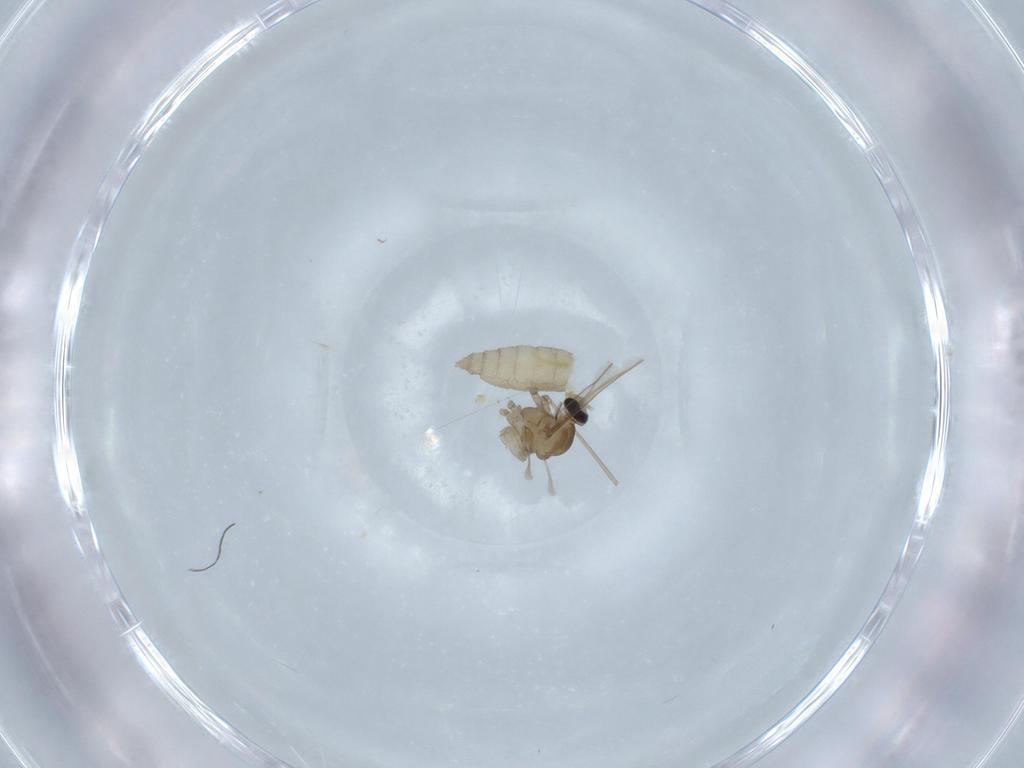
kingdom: Animalia
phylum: Arthropoda
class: Insecta
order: Diptera
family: Cecidomyiidae
